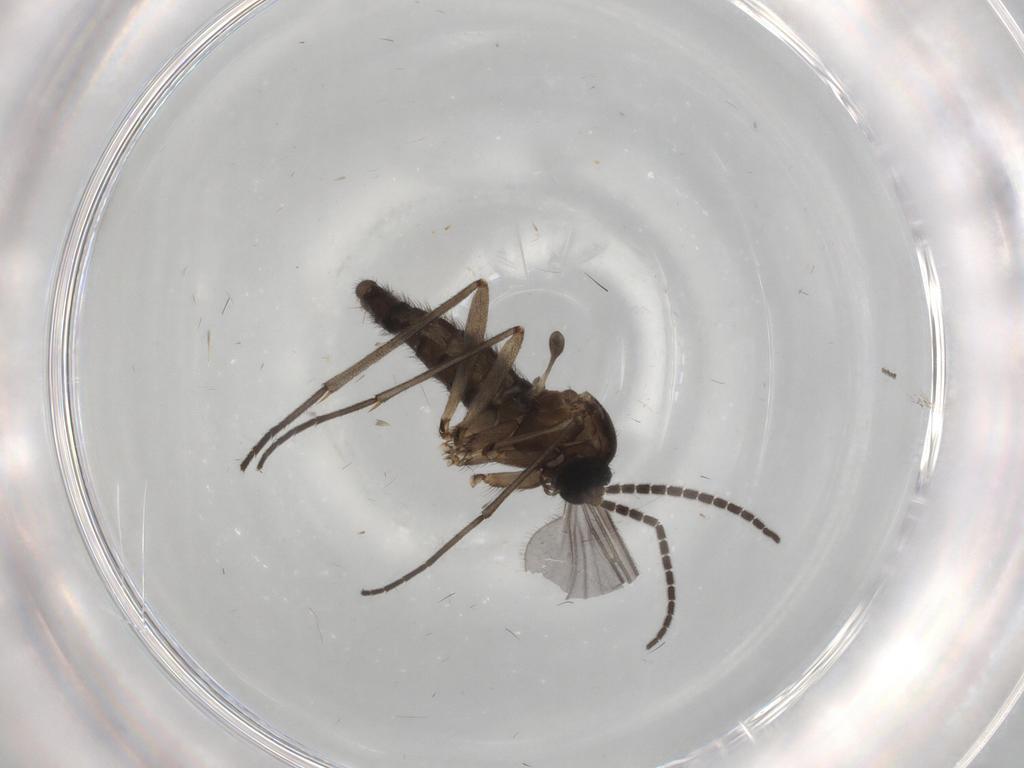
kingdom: Animalia
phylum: Arthropoda
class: Insecta
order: Diptera
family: Sciaridae
